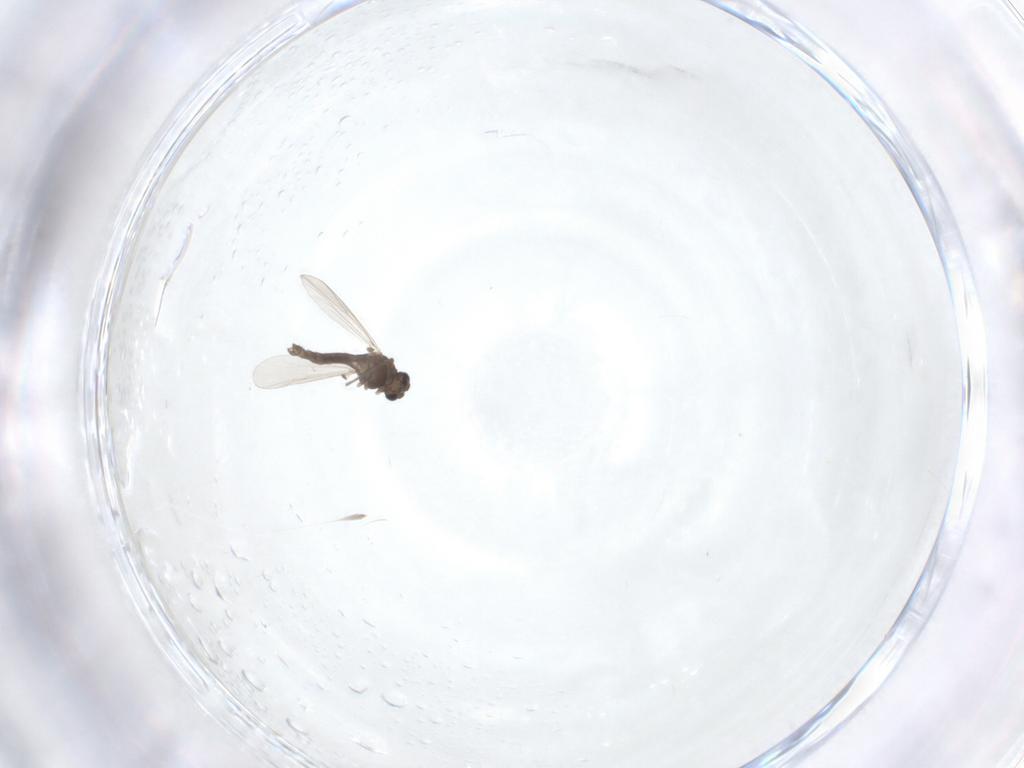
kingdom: Animalia
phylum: Arthropoda
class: Insecta
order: Diptera
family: Chironomidae
